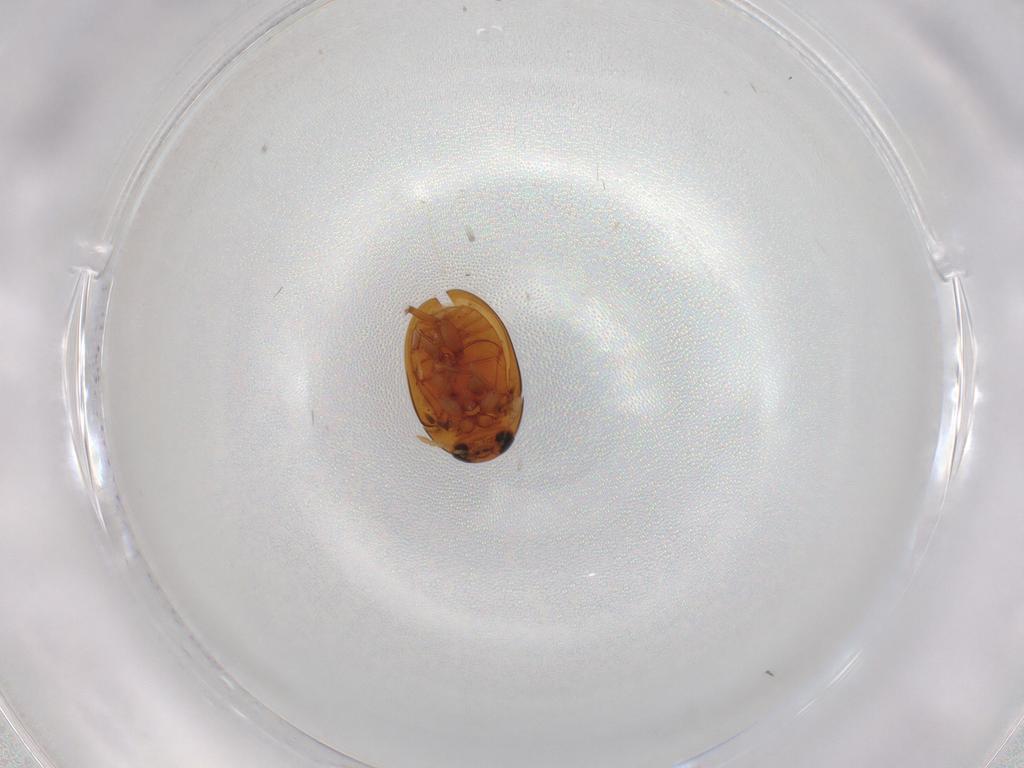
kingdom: Animalia
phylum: Arthropoda
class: Insecta
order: Coleoptera
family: Phalacridae
